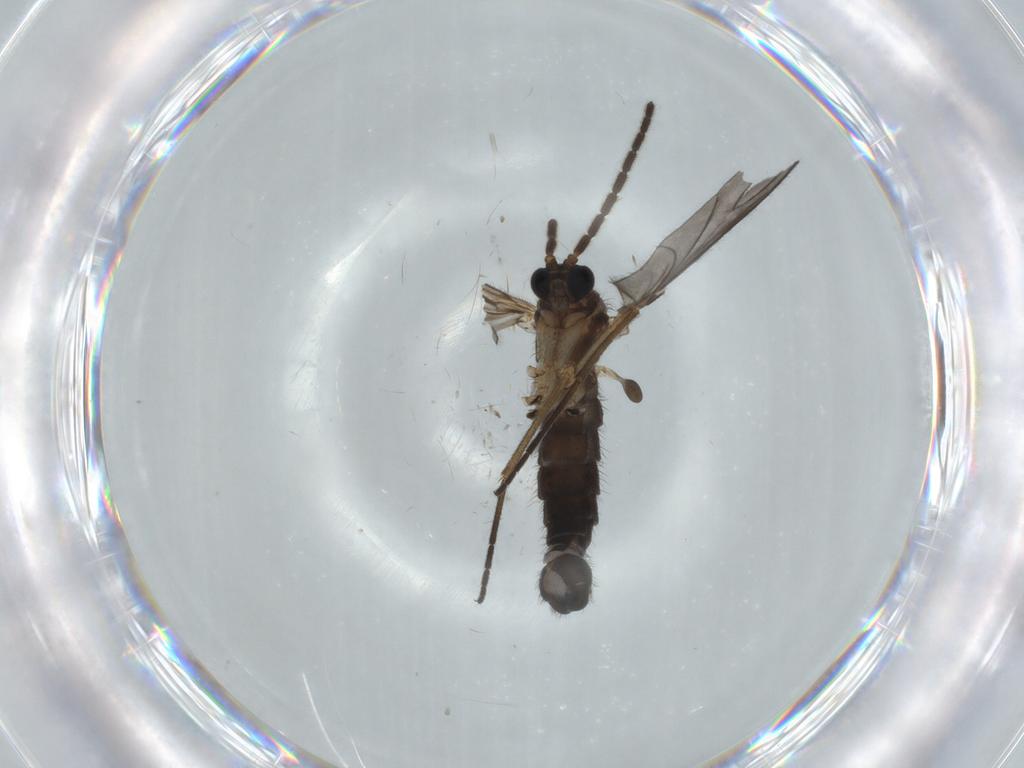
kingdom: Animalia
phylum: Arthropoda
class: Insecta
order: Diptera
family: Sciaridae
